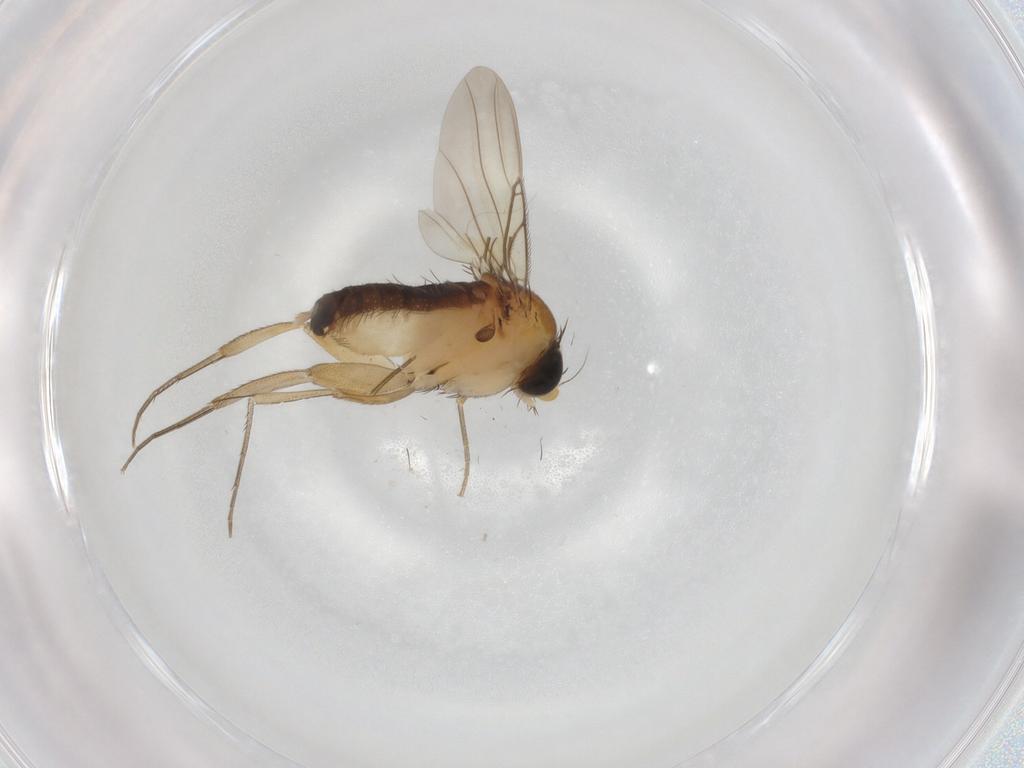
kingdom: Animalia
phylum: Arthropoda
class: Insecta
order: Diptera
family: Phoridae
